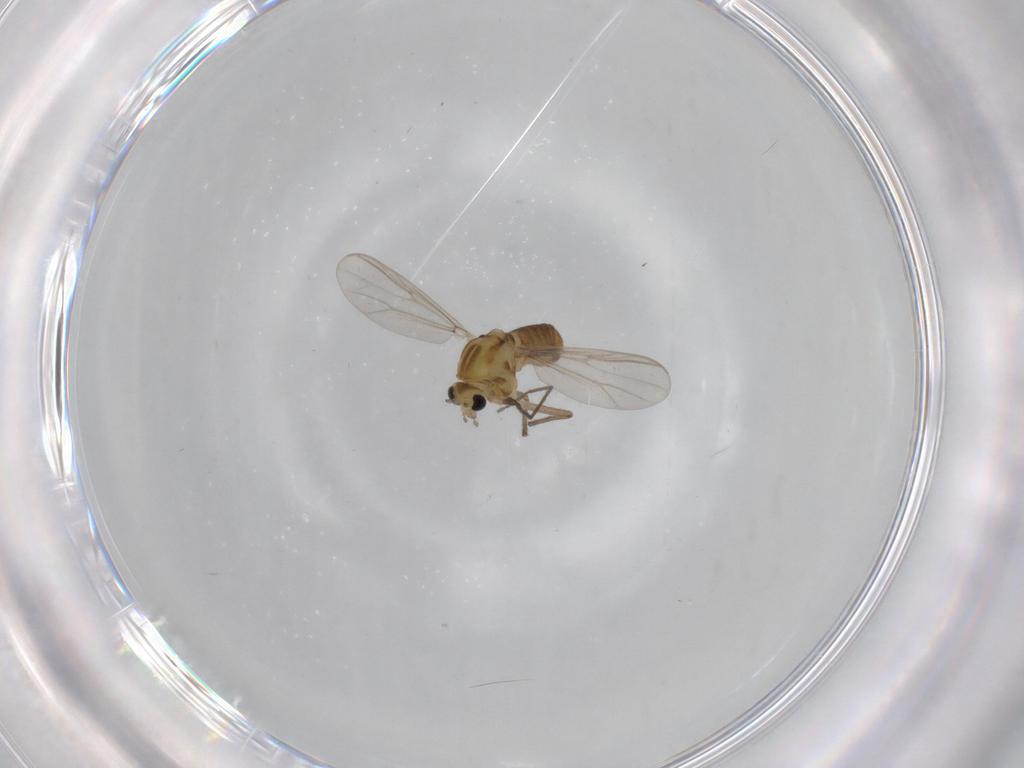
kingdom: Animalia
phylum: Arthropoda
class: Insecta
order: Diptera
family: Chironomidae
